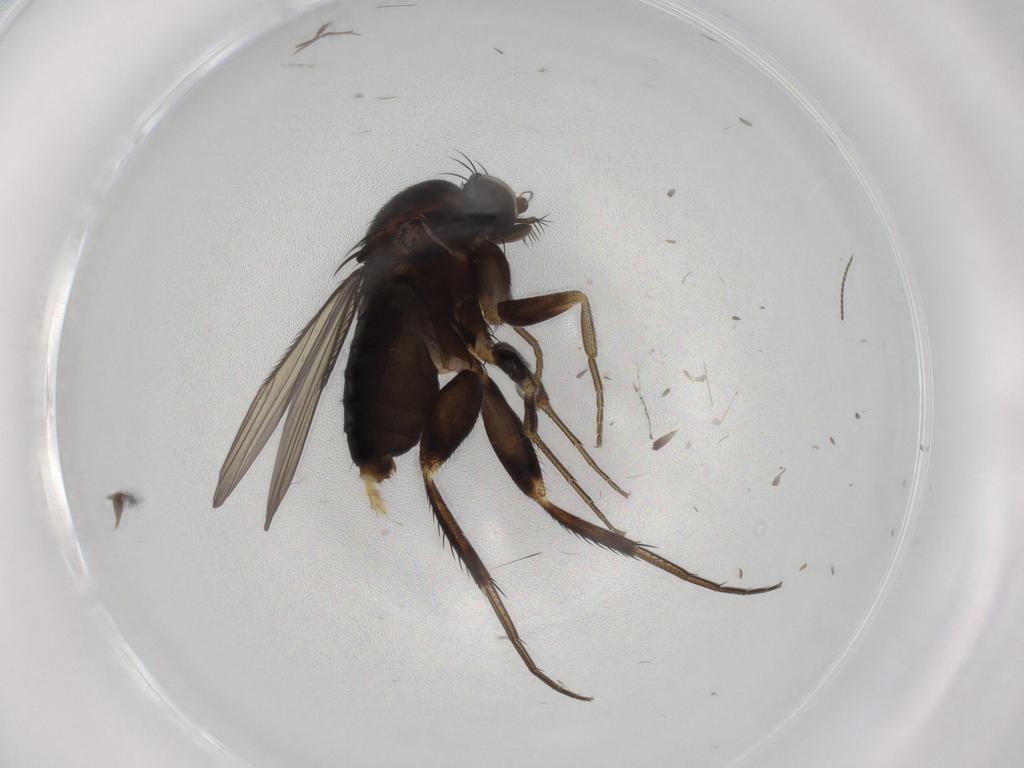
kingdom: Animalia
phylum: Arthropoda
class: Insecta
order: Diptera
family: Phoridae
